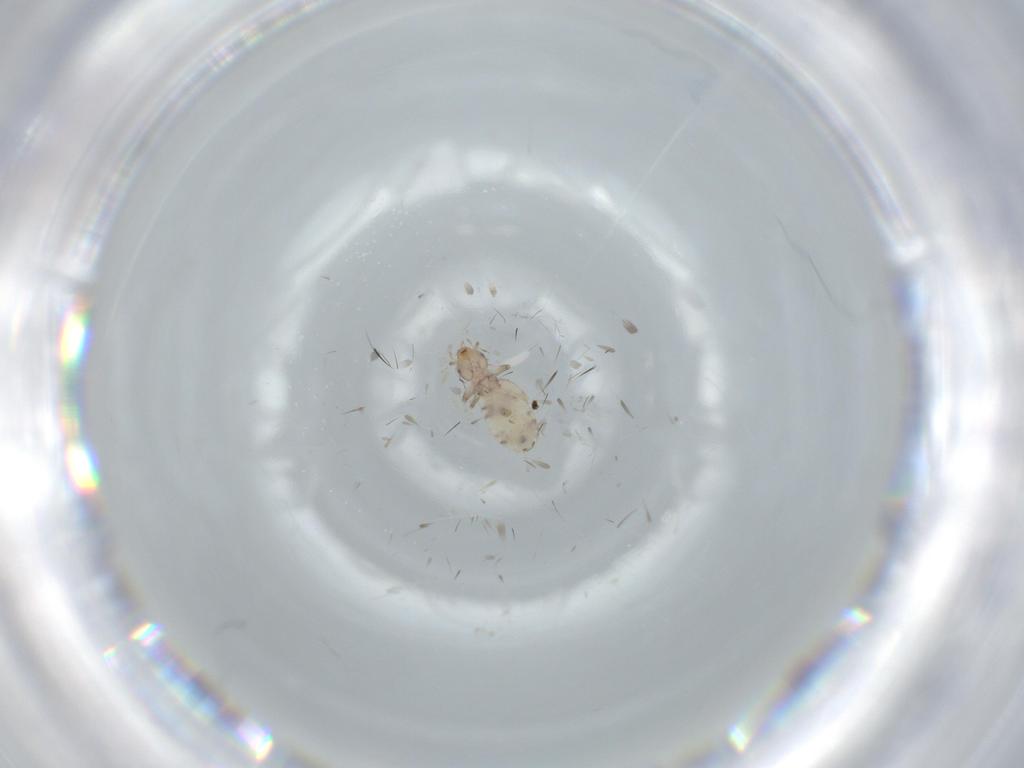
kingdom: Animalia
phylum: Arthropoda
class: Insecta
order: Psocodea
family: Liposcelididae
